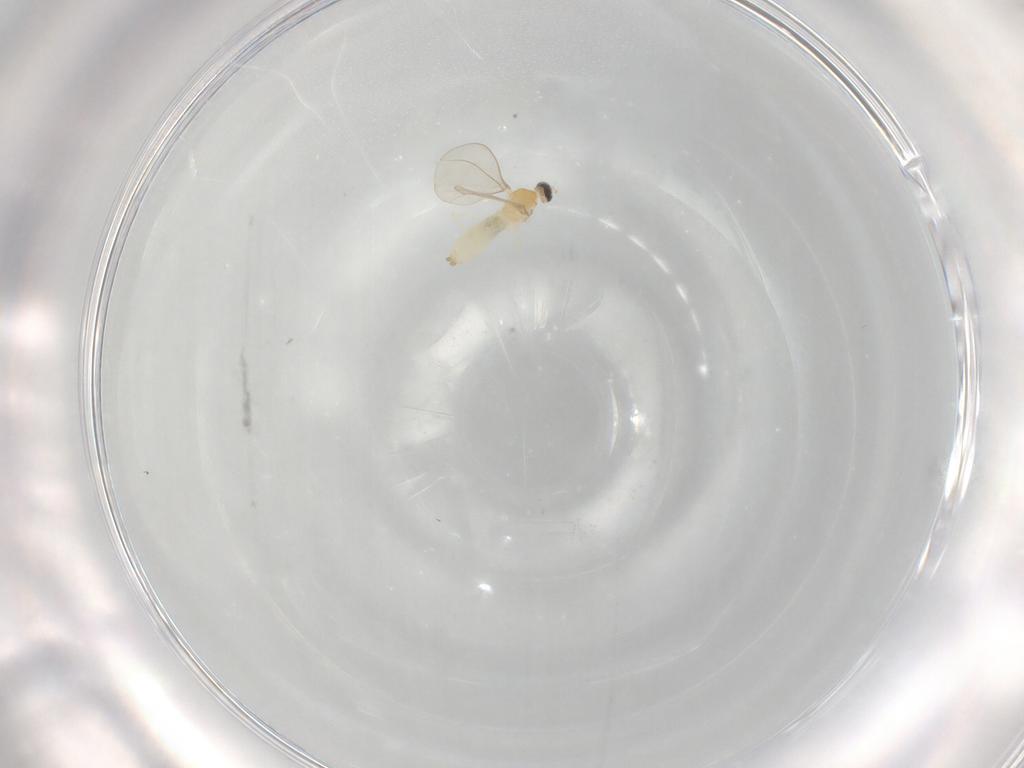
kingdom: Animalia
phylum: Arthropoda
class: Insecta
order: Diptera
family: Cecidomyiidae
